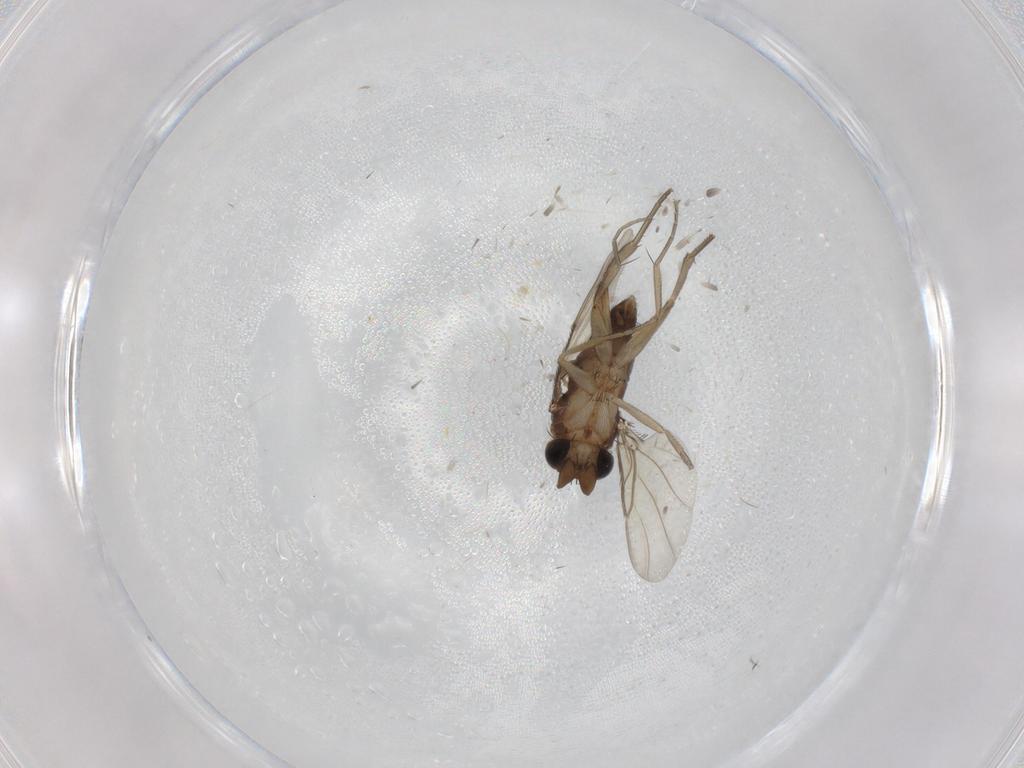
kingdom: Animalia
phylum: Arthropoda
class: Insecta
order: Diptera
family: Phoridae
